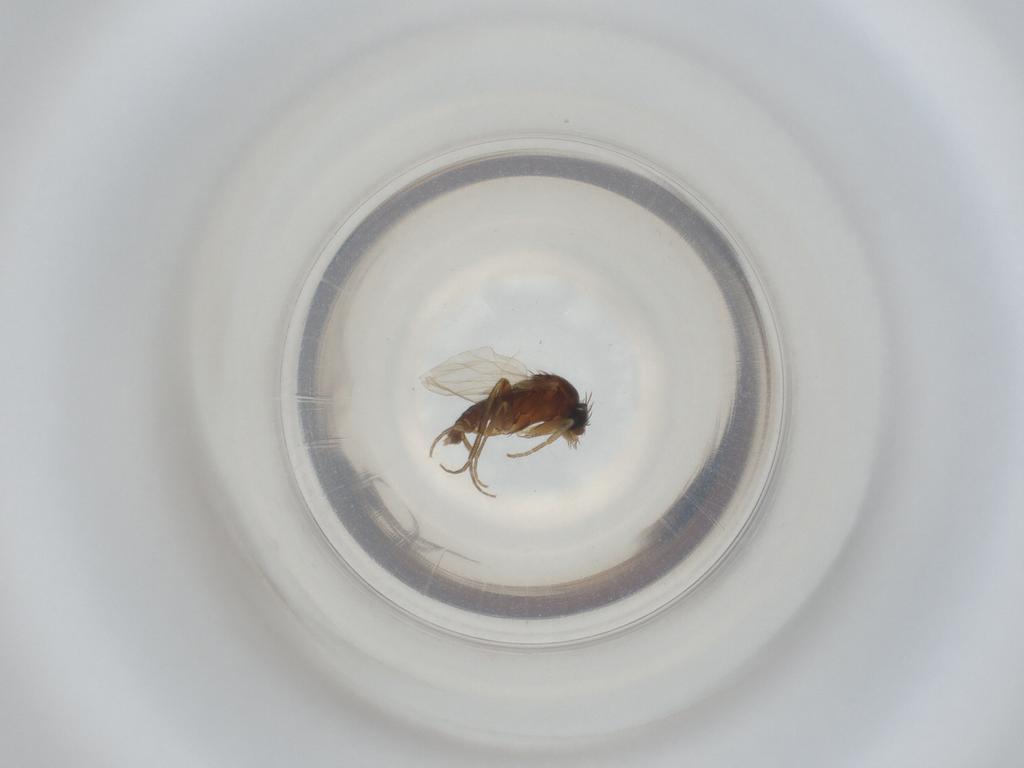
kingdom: Animalia
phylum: Arthropoda
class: Insecta
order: Diptera
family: Phoridae
